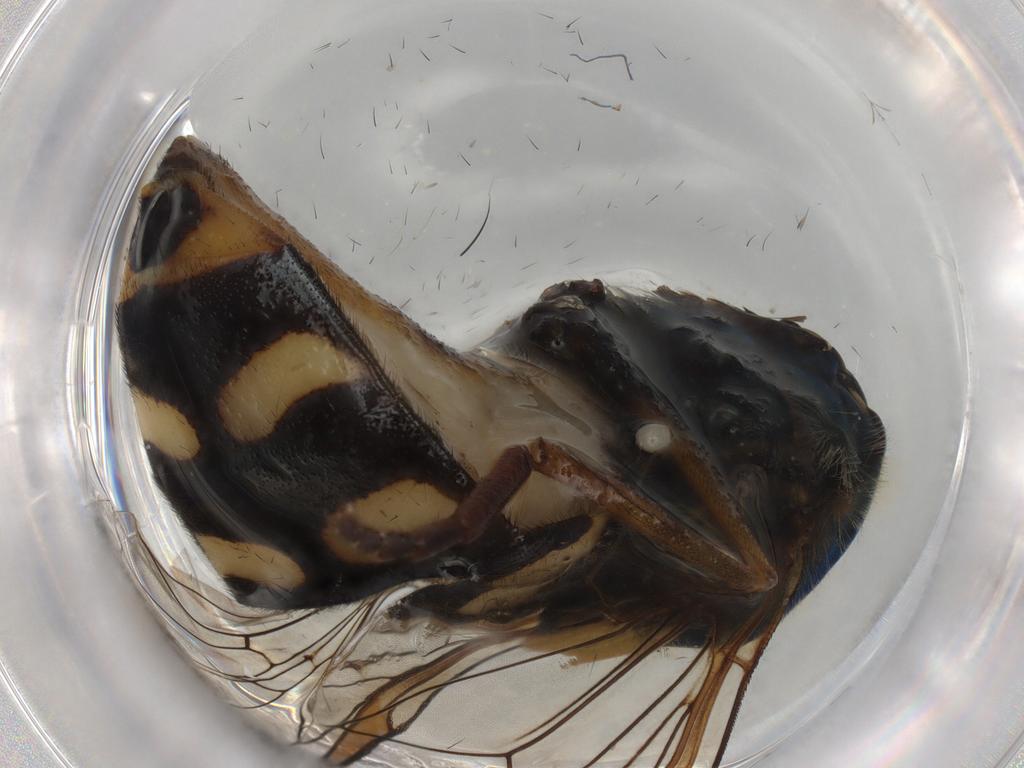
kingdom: Animalia
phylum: Arthropoda
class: Insecta
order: Diptera
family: Syrphidae
